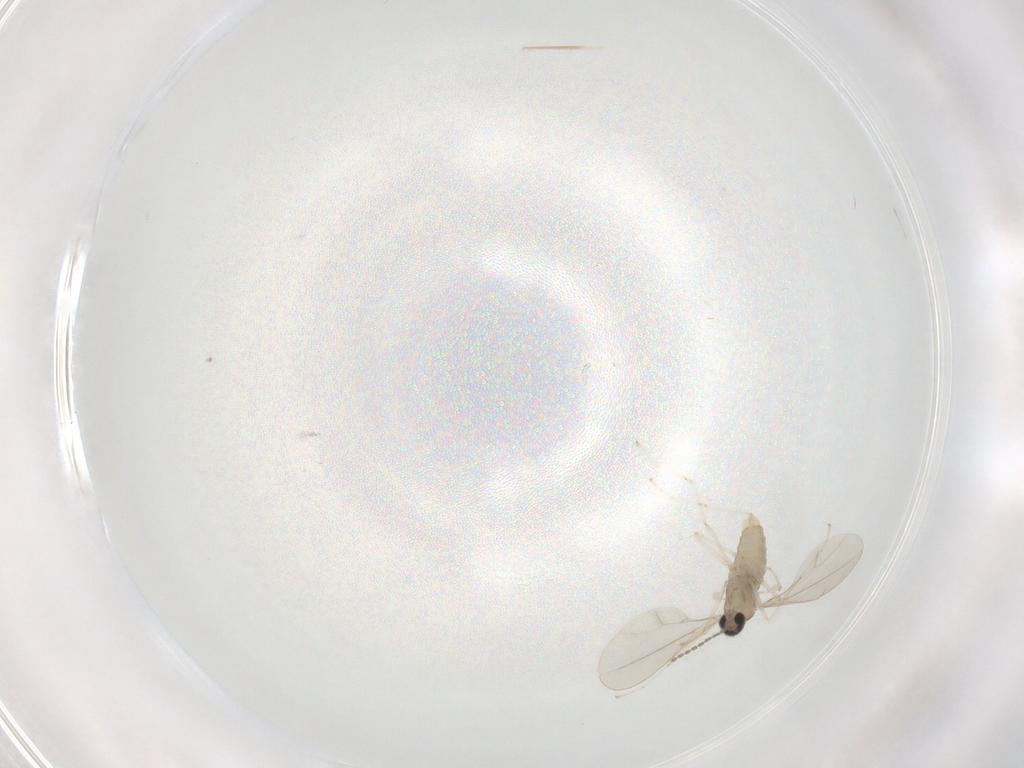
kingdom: Animalia
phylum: Arthropoda
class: Insecta
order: Diptera
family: Cecidomyiidae
